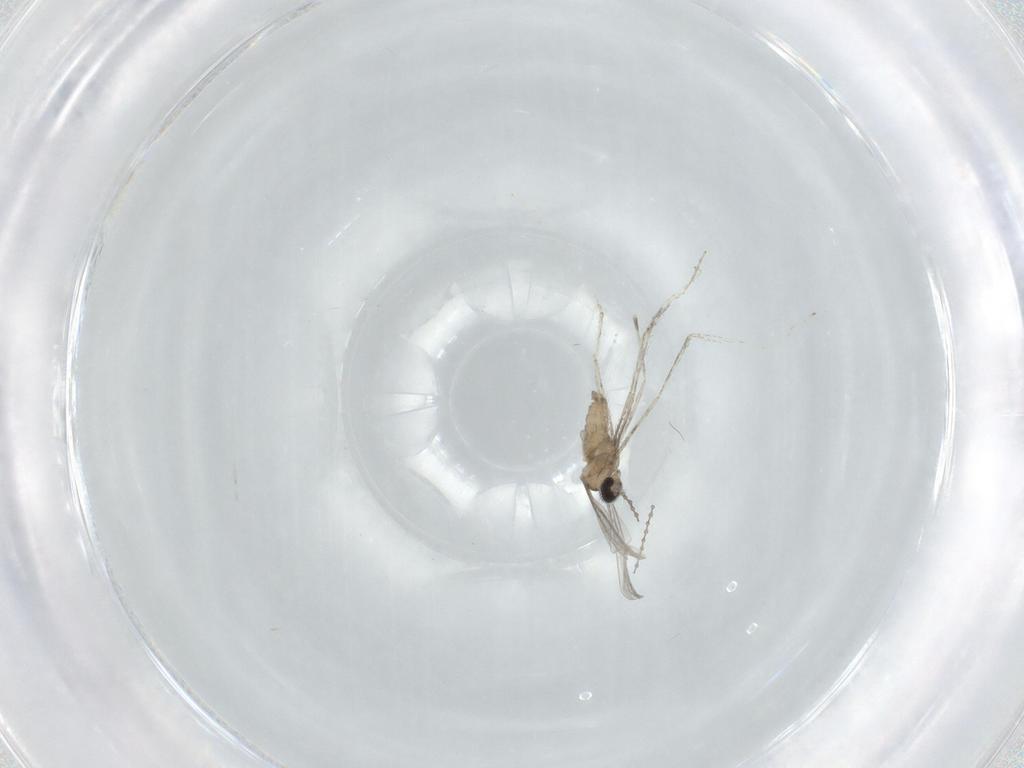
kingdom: Animalia
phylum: Arthropoda
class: Insecta
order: Diptera
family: Cecidomyiidae
